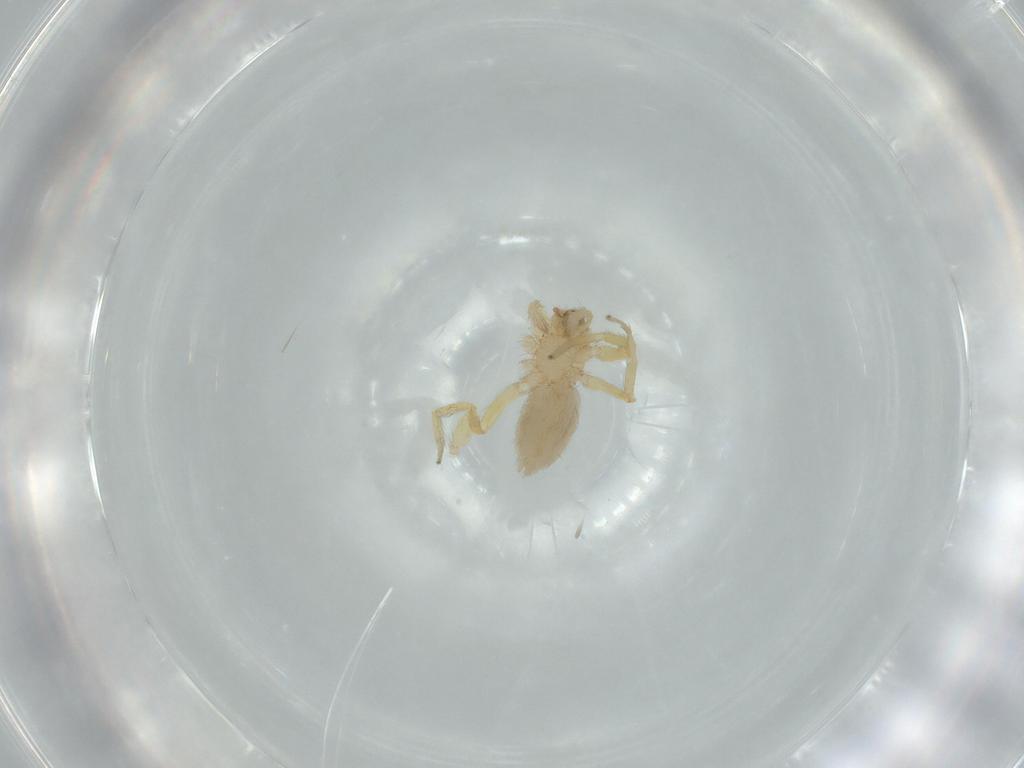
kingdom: Animalia
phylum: Arthropoda
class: Arachnida
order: Araneae
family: Oonopidae
